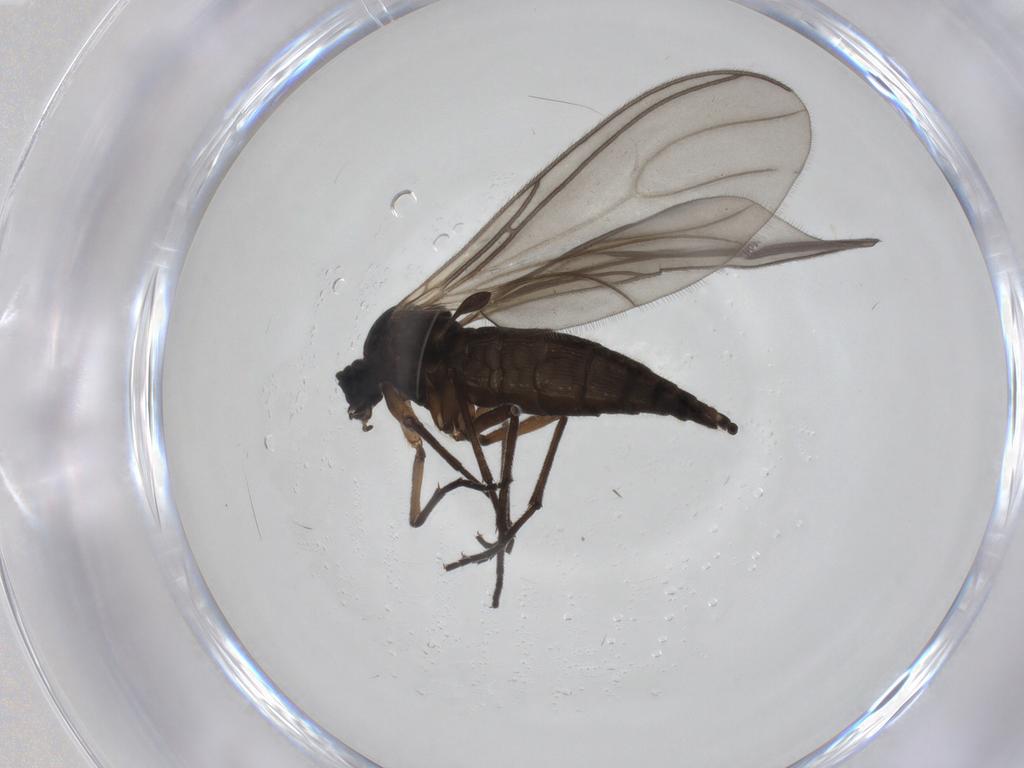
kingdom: Animalia
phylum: Arthropoda
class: Insecta
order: Diptera
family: Sciaridae
